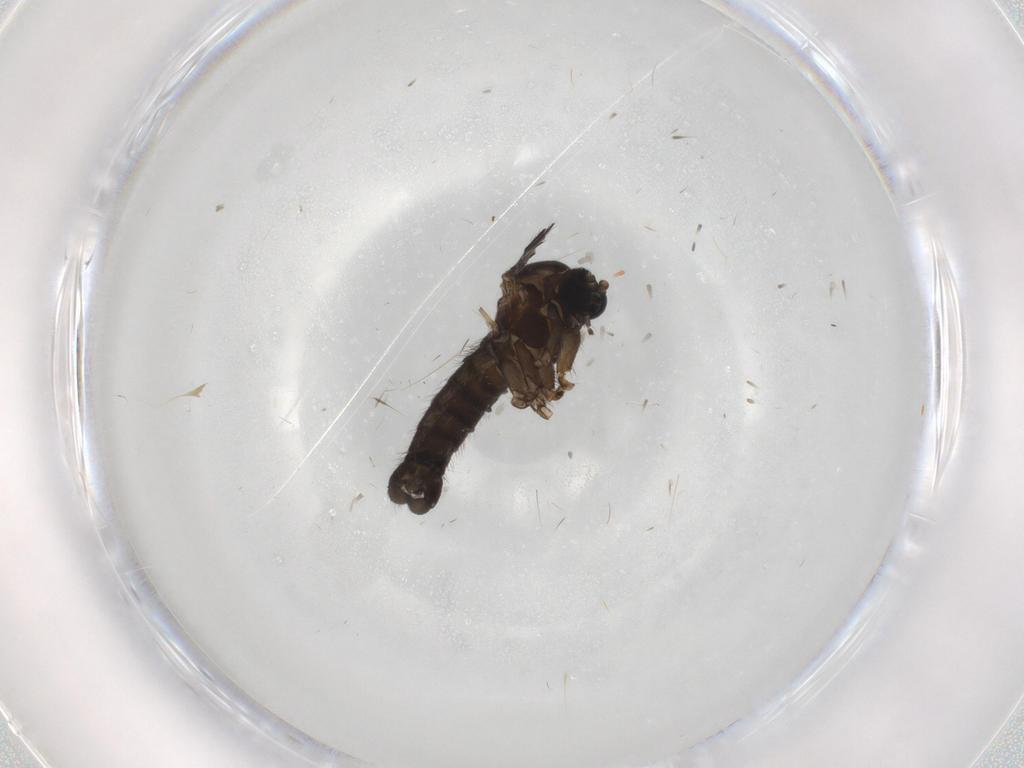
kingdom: Animalia
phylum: Arthropoda
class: Insecta
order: Diptera
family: Sciaridae
